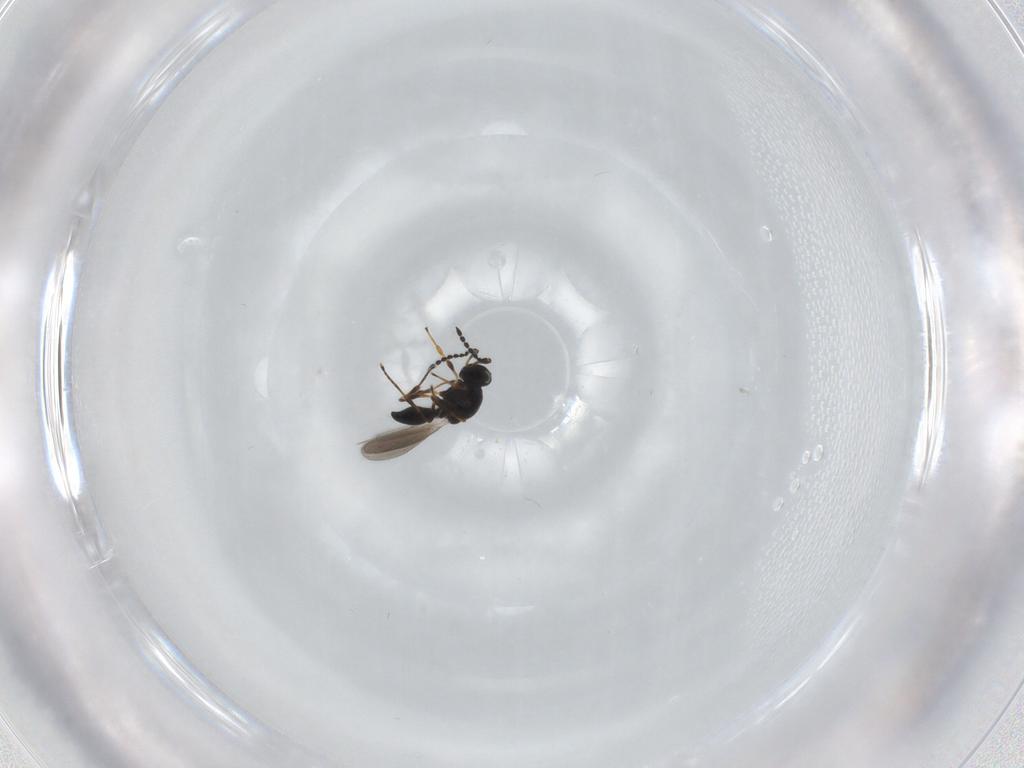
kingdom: Animalia
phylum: Arthropoda
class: Insecta
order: Hymenoptera
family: Platygastridae
